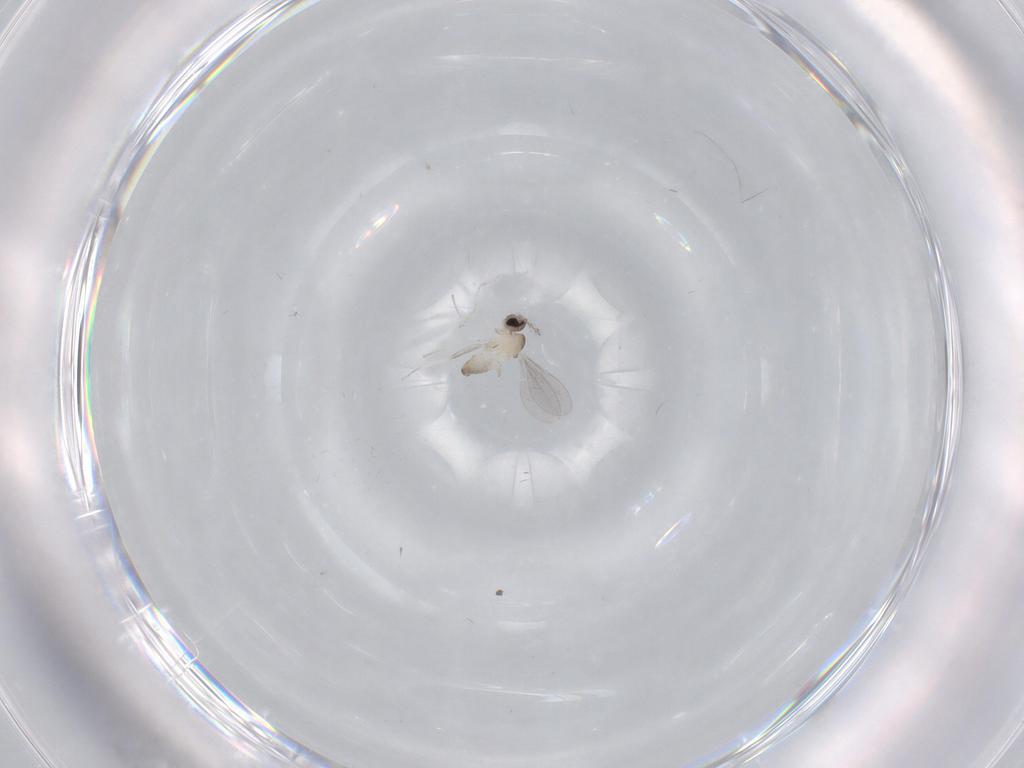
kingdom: Animalia
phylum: Arthropoda
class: Insecta
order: Diptera
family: Cecidomyiidae
